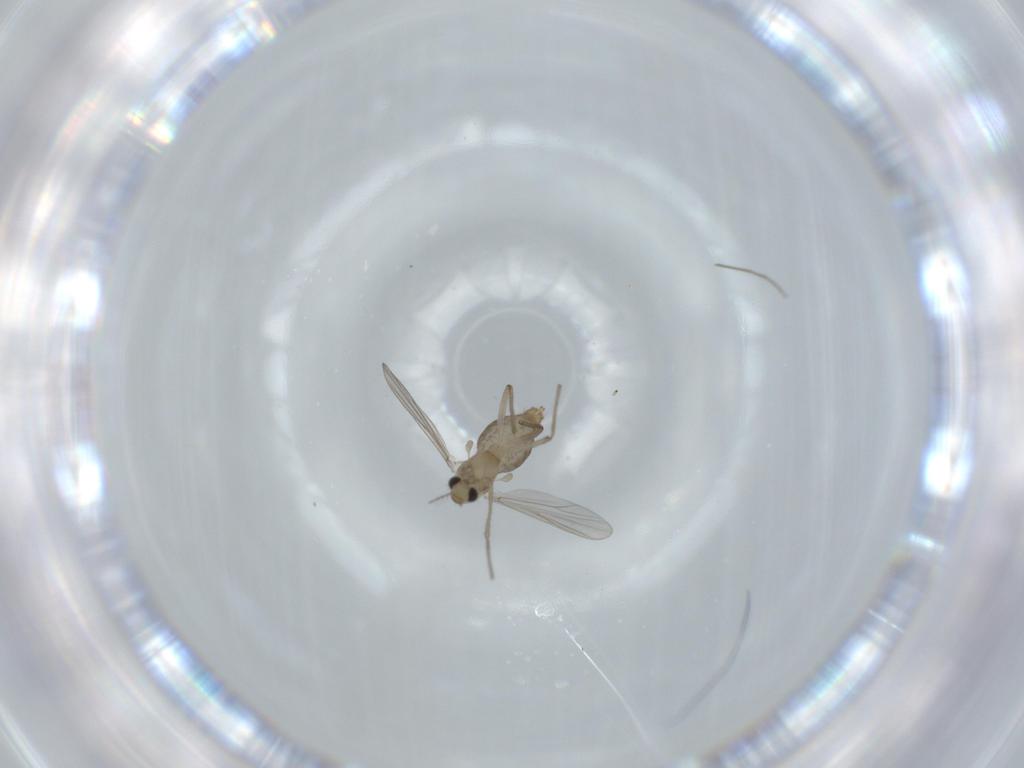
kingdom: Animalia
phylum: Arthropoda
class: Insecta
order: Diptera
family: Chironomidae
